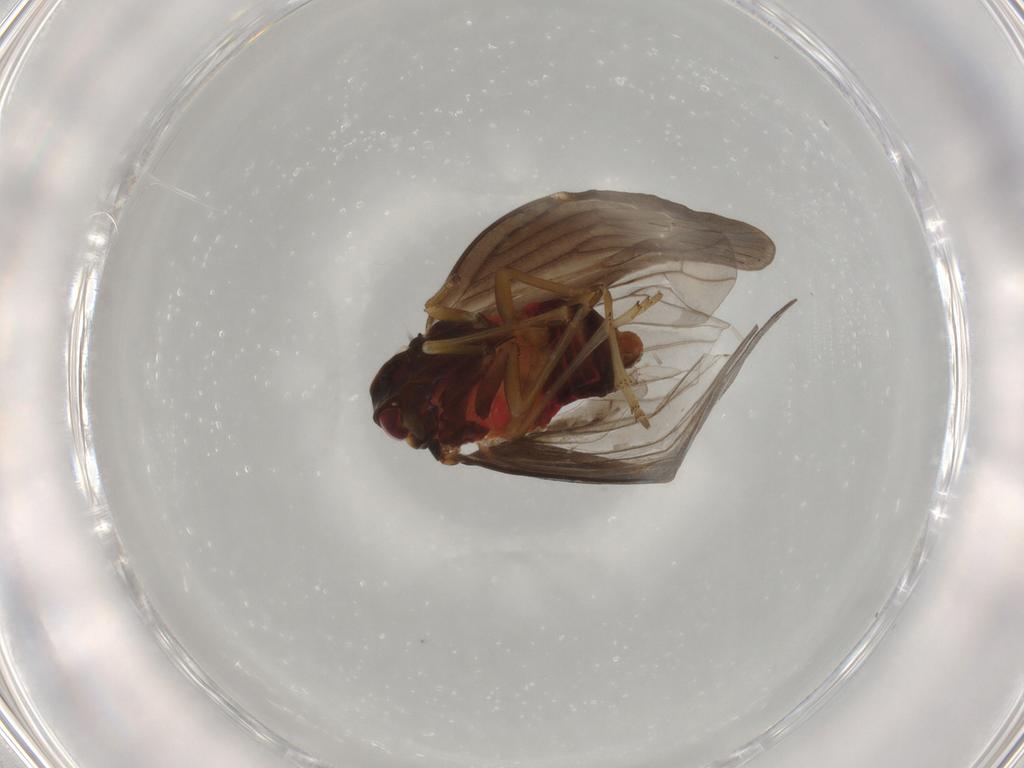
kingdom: Animalia
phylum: Arthropoda
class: Insecta
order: Hemiptera
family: Derbidae
